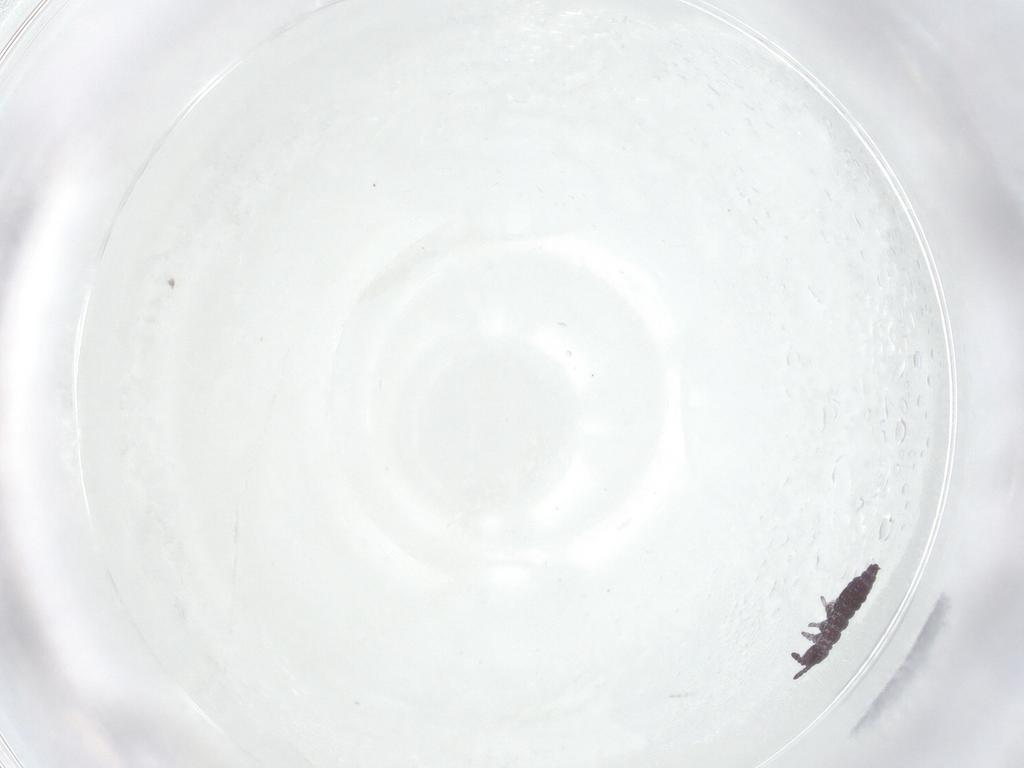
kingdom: Animalia
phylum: Arthropoda
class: Collembola
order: Poduromorpha
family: Hypogastruridae
